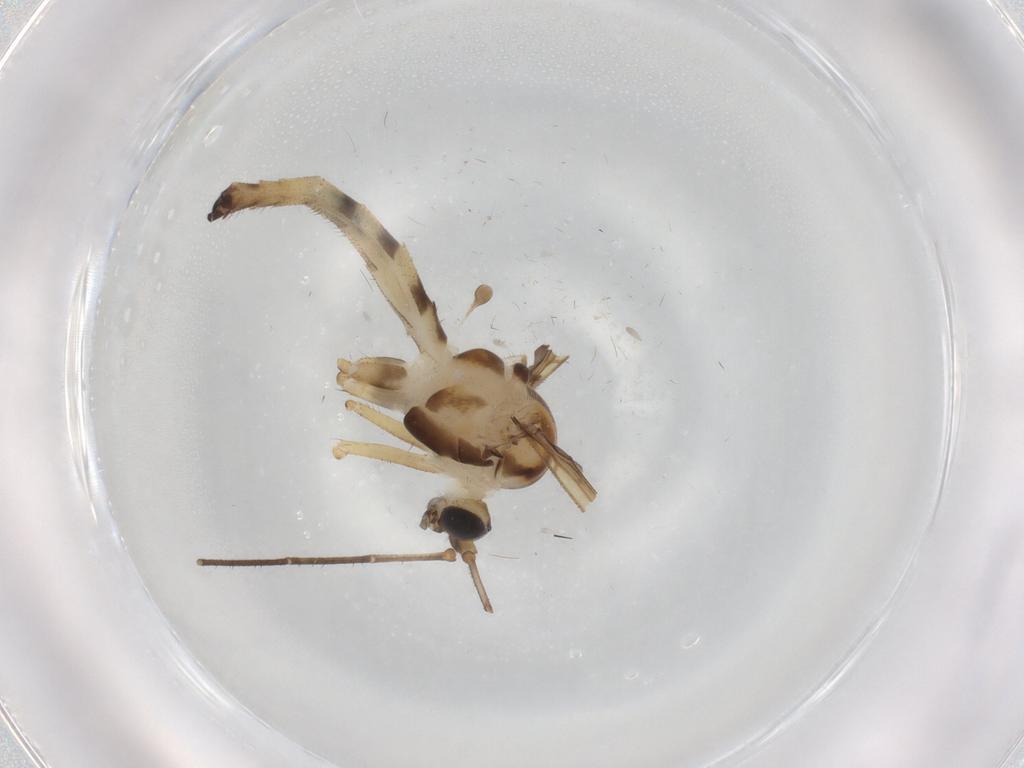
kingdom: Animalia
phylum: Arthropoda
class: Insecta
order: Diptera
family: Cecidomyiidae
